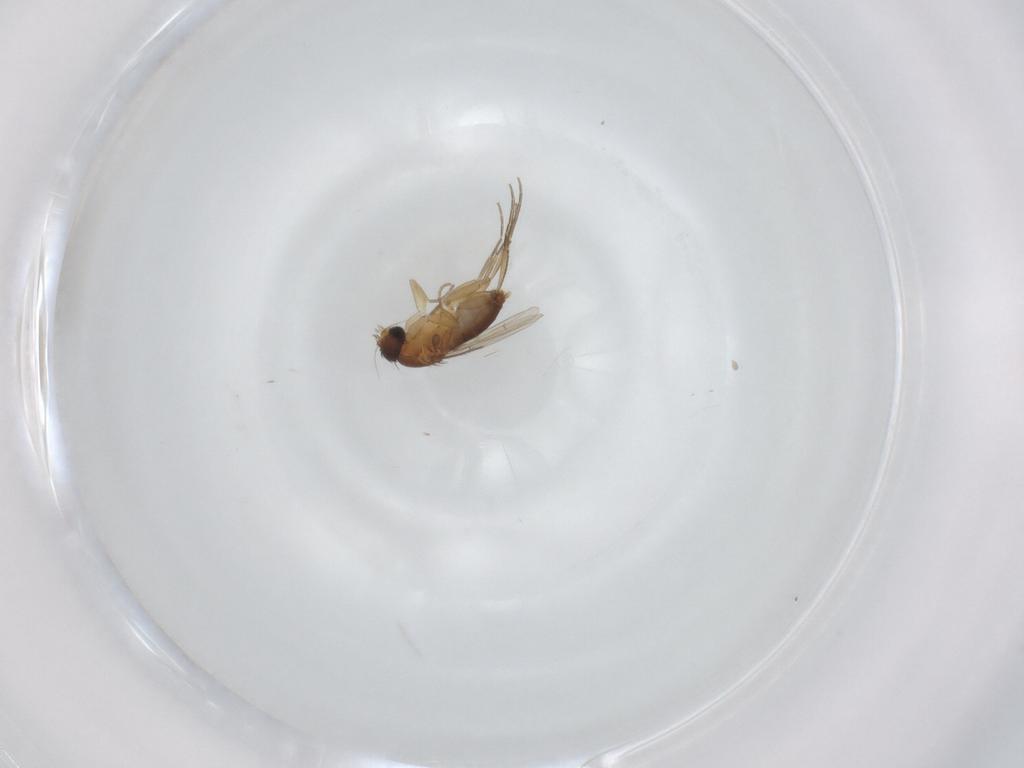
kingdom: Animalia
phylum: Arthropoda
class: Insecta
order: Diptera
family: Phoridae
